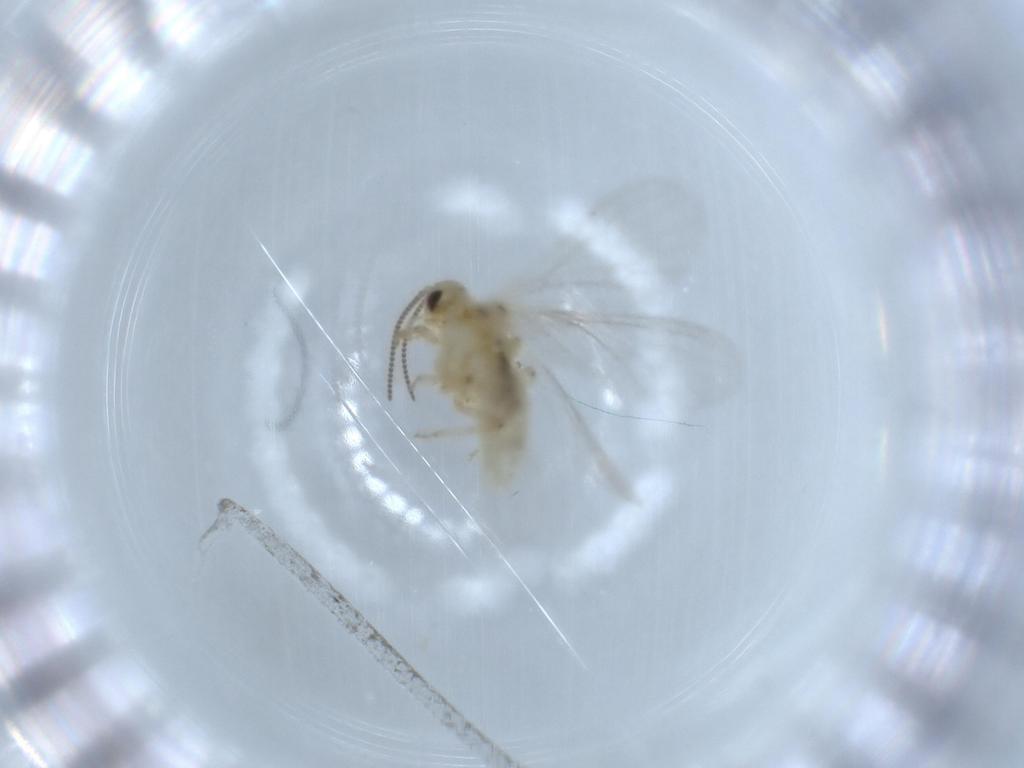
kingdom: Animalia
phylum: Arthropoda
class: Insecta
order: Neuroptera
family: Coniopterygidae
